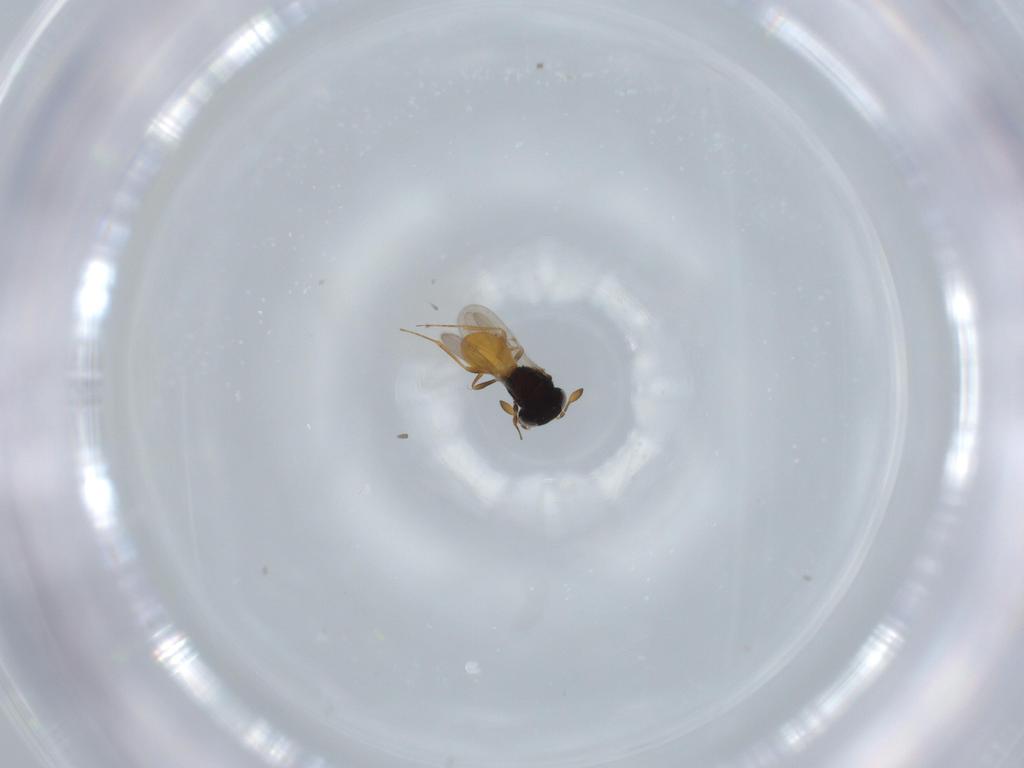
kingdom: Animalia
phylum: Arthropoda
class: Insecta
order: Hymenoptera
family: Scelionidae
